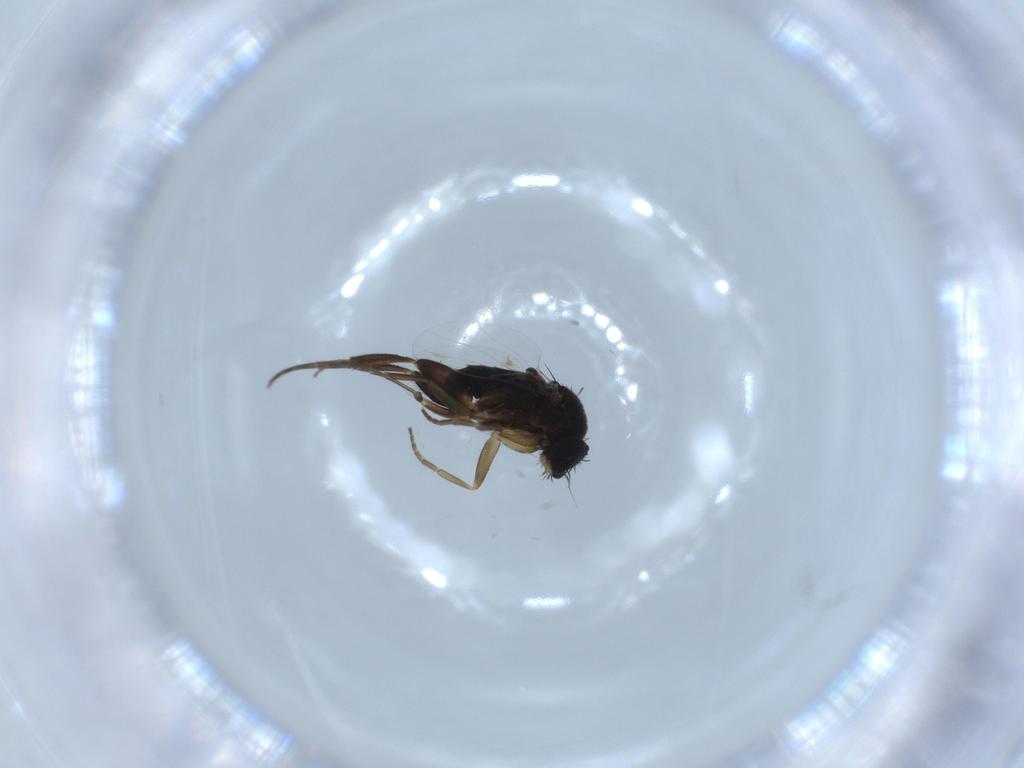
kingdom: Animalia
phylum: Arthropoda
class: Insecta
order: Diptera
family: Phoridae
